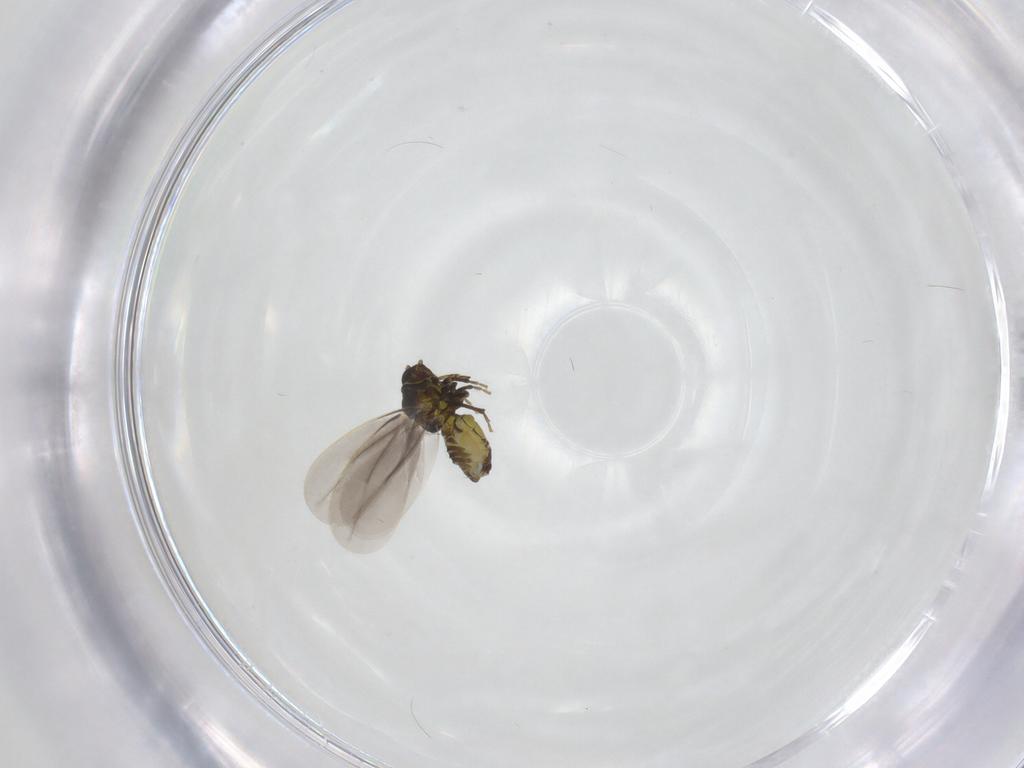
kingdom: Animalia
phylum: Arthropoda
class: Insecta
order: Hemiptera
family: Aleyrodidae
